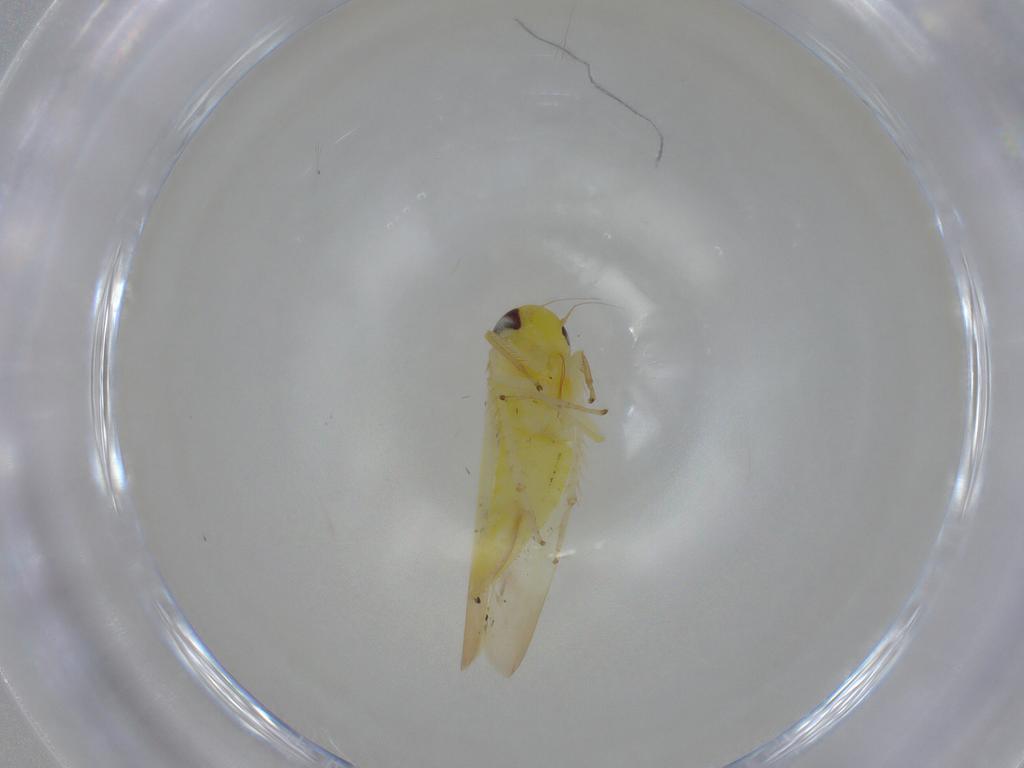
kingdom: Animalia
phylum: Arthropoda
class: Insecta
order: Hemiptera
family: Cicadellidae
